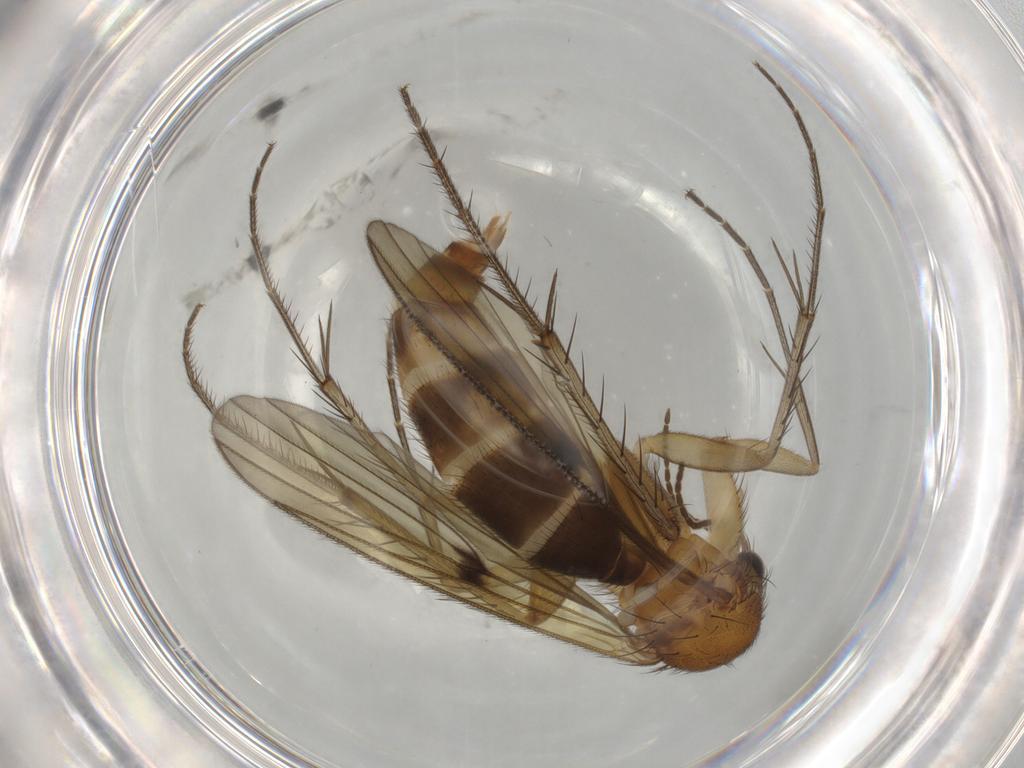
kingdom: Animalia
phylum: Arthropoda
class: Insecta
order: Diptera
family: Mycetophilidae
